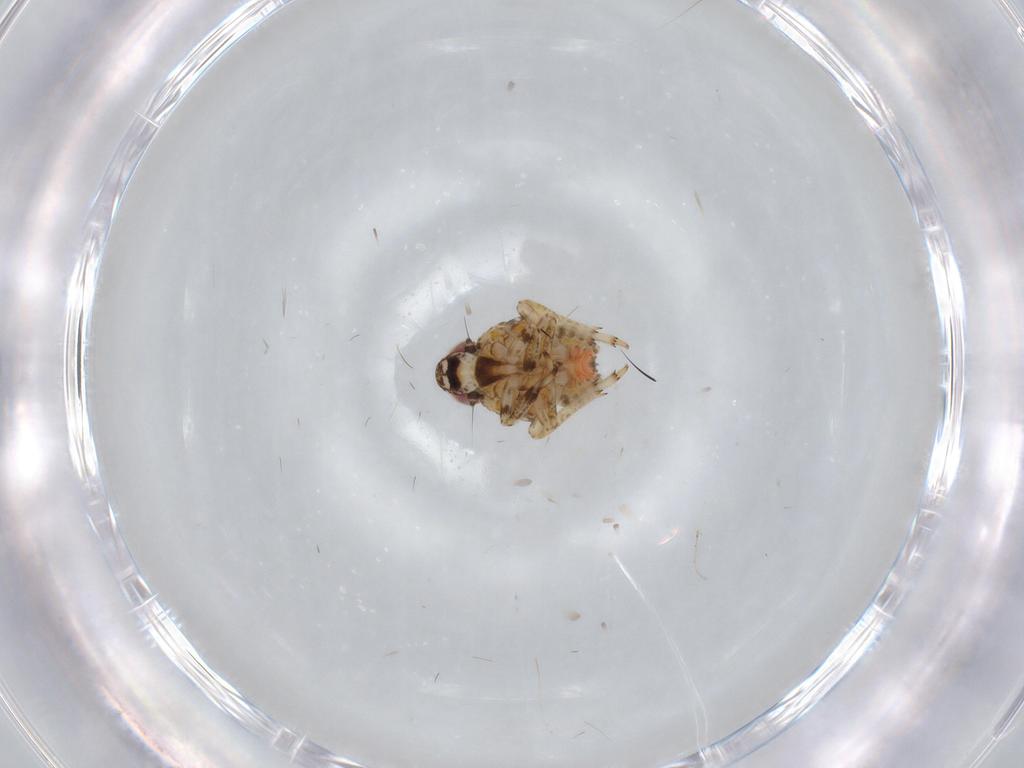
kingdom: Animalia
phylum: Arthropoda
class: Insecta
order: Hemiptera
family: Issidae
